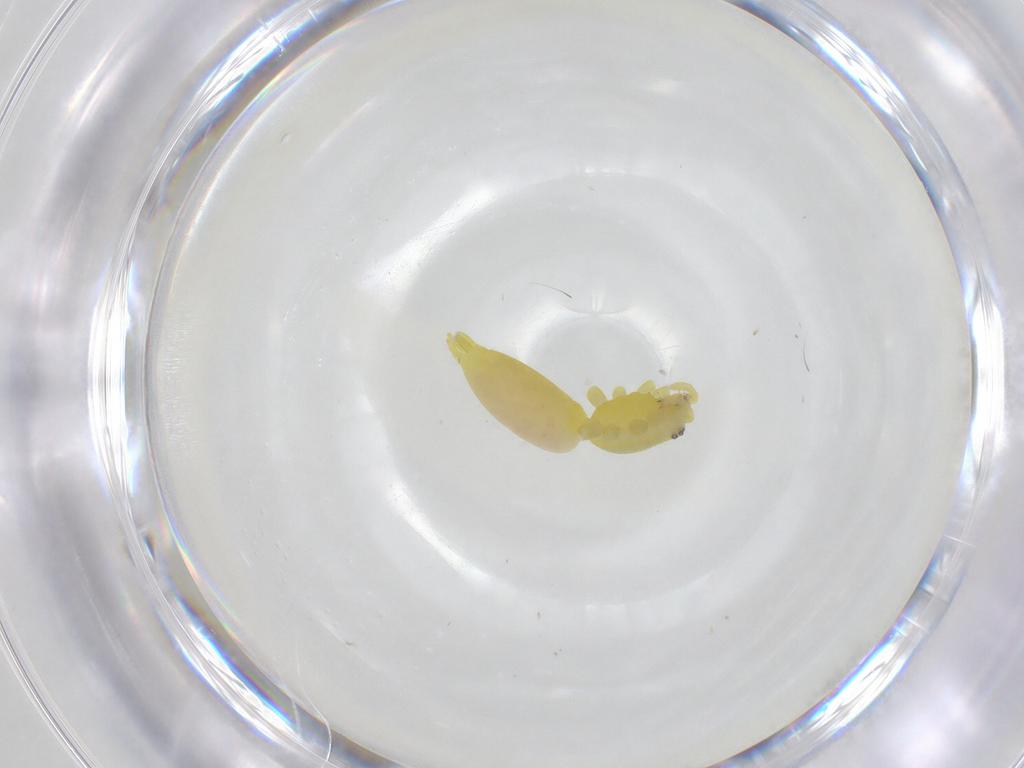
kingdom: Animalia
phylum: Arthropoda
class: Arachnida
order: Araneae
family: Clubionidae
